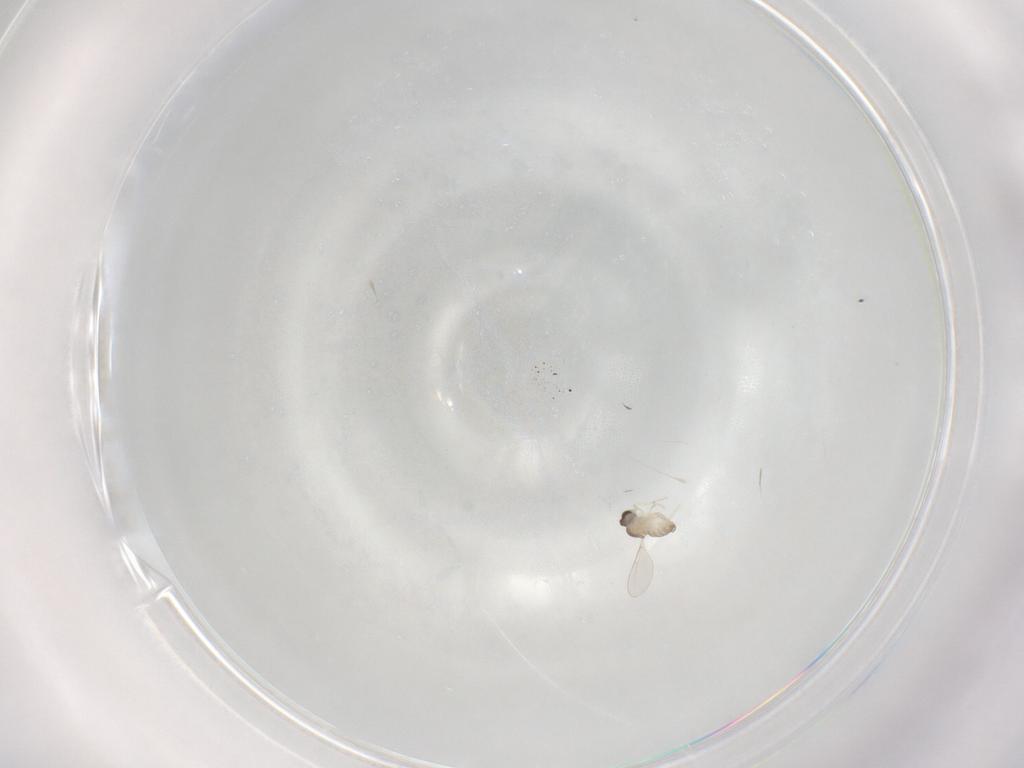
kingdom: Animalia
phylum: Arthropoda
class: Insecta
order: Diptera
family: Cecidomyiidae
